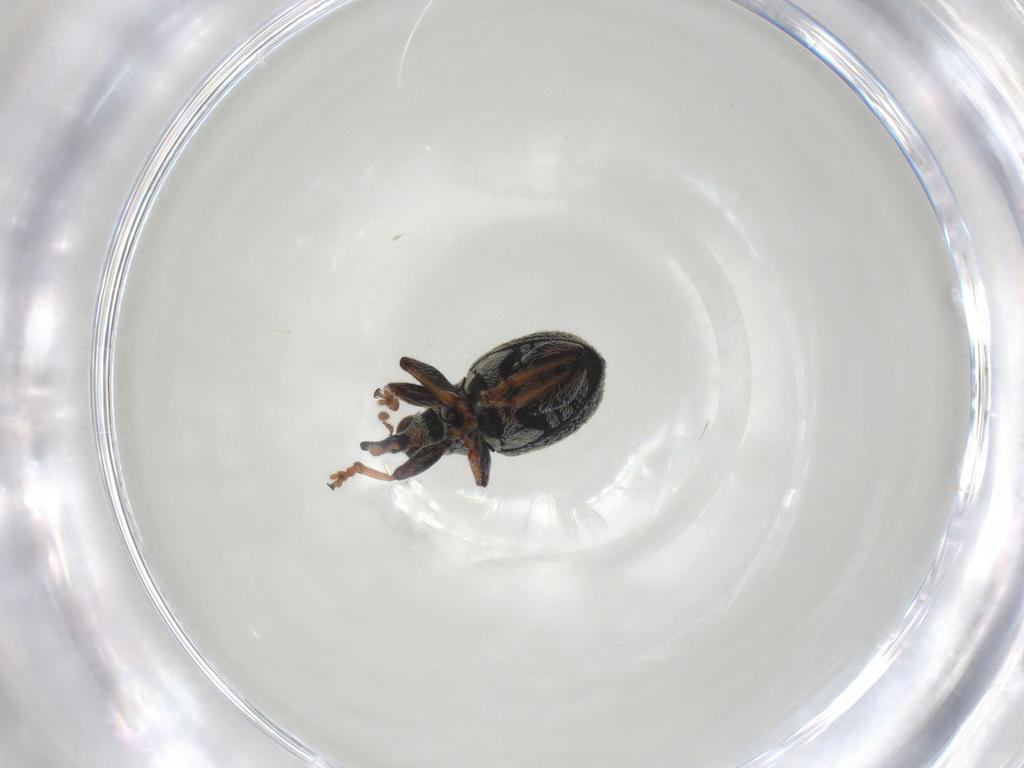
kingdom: Animalia
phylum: Arthropoda
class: Insecta
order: Coleoptera
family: Brentidae
